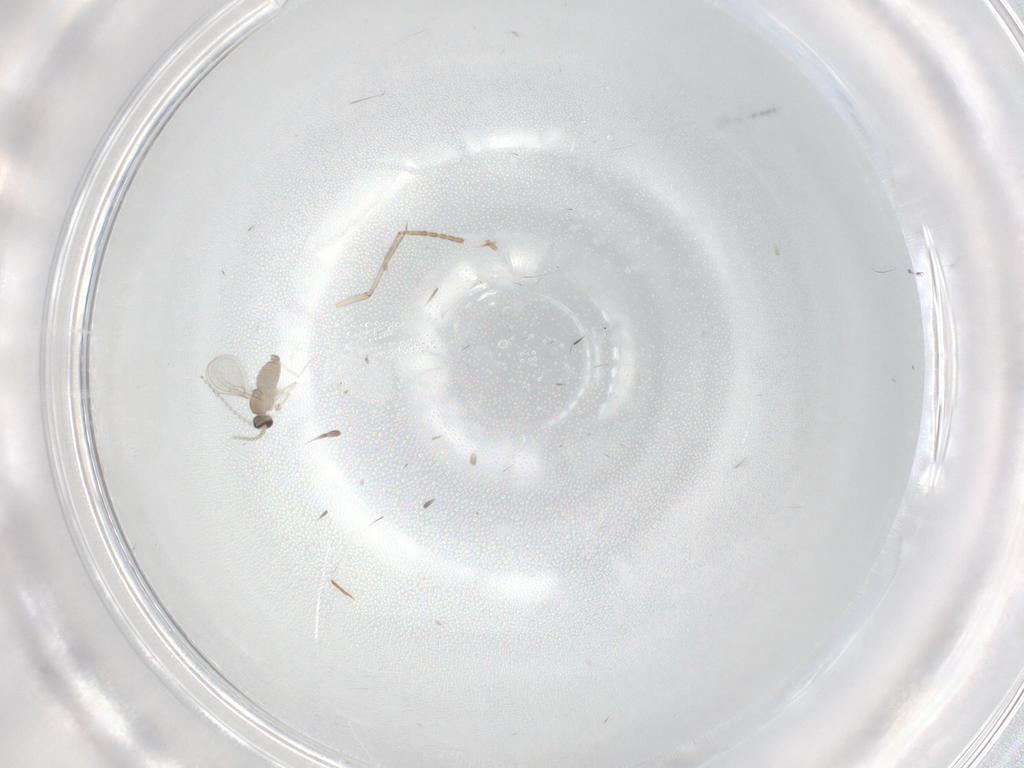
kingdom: Animalia
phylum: Arthropoda
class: Insecta
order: Diptera
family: Cecidomyiidae
